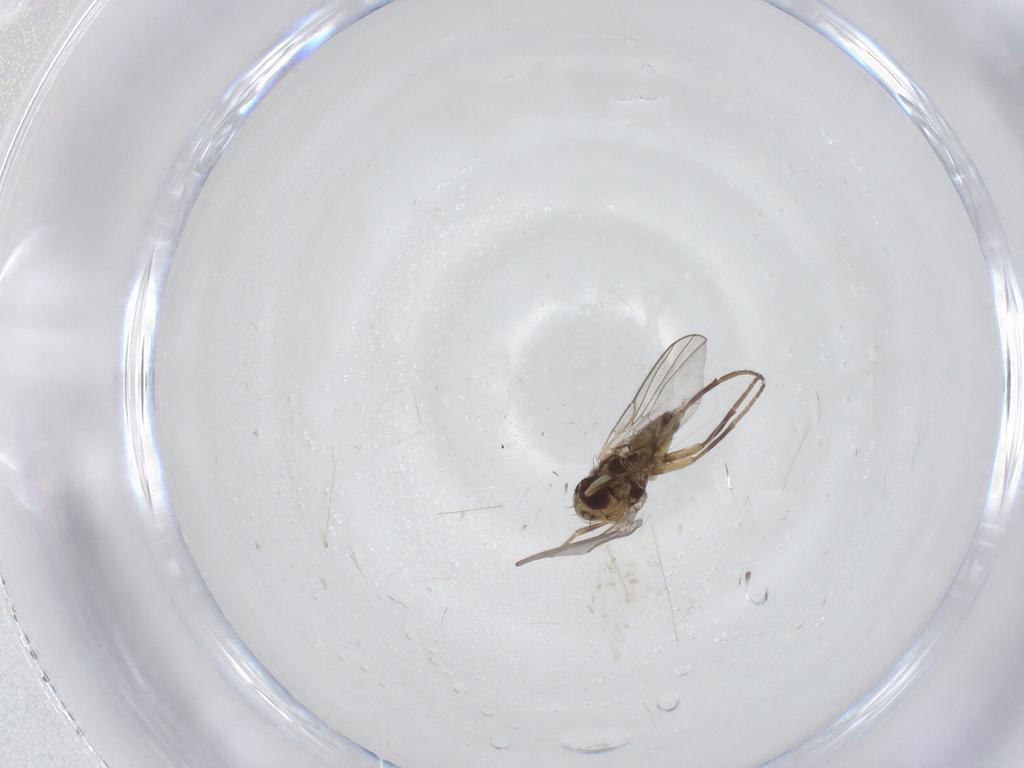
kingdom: Animalia
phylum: Arthropoda
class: Insecta
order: Diptera
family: Agromyzidae
